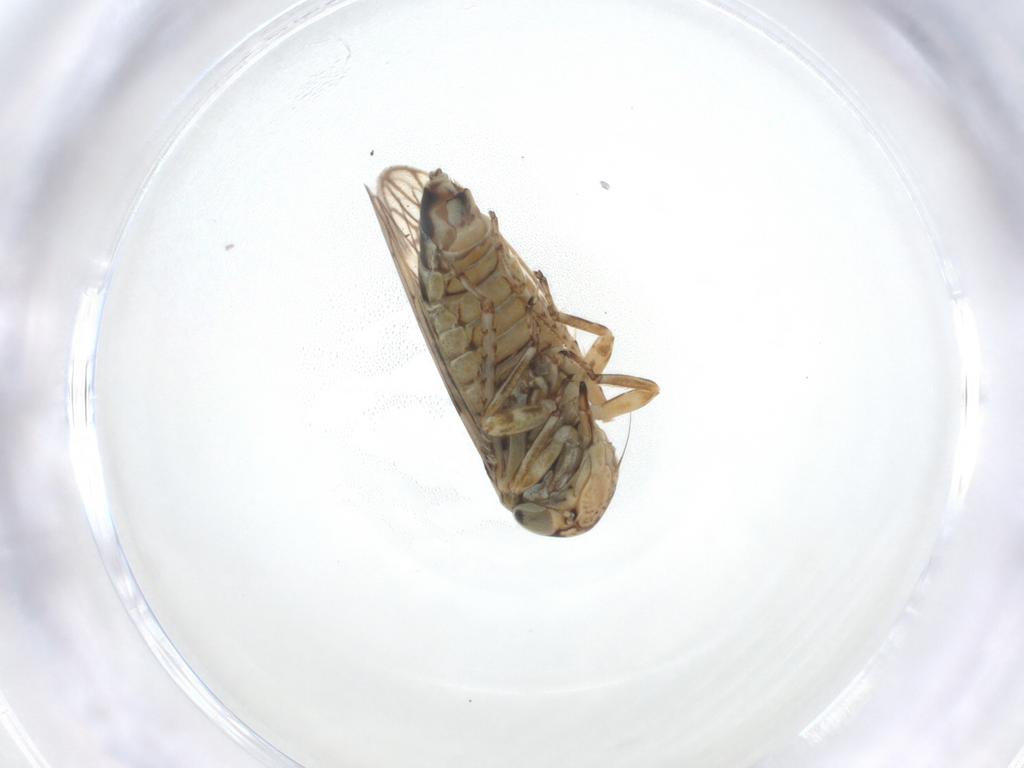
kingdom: Animalia
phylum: Arthropoda
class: Insecta
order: Hemiptera
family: Cicadellidae
